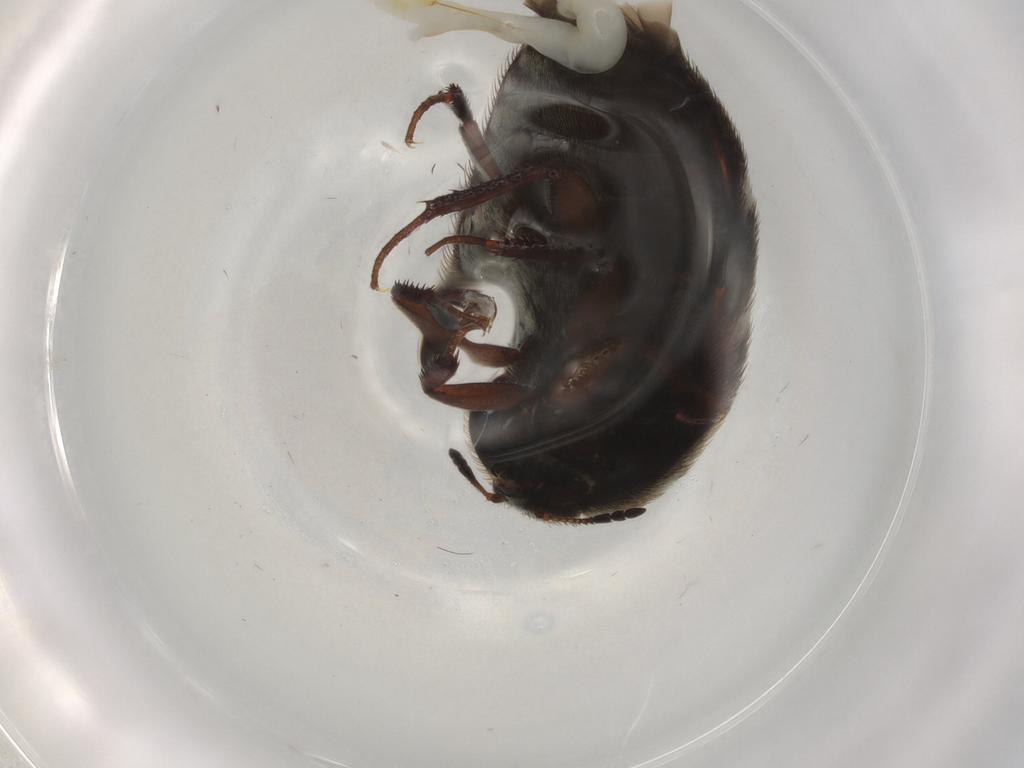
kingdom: Animalia
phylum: Arthropoda
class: Insecta
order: Coleoptera
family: Dermestidae
